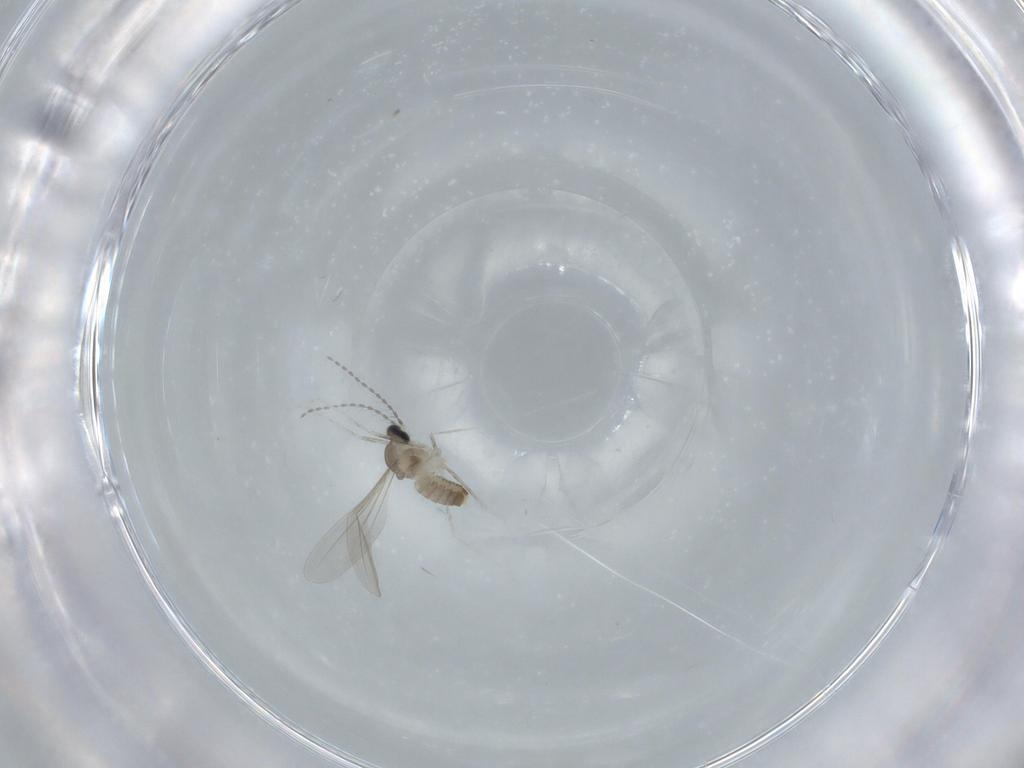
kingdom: Animalia
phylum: Arthropoda
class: Insecta
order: Diptera
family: Cecidomyiidae
